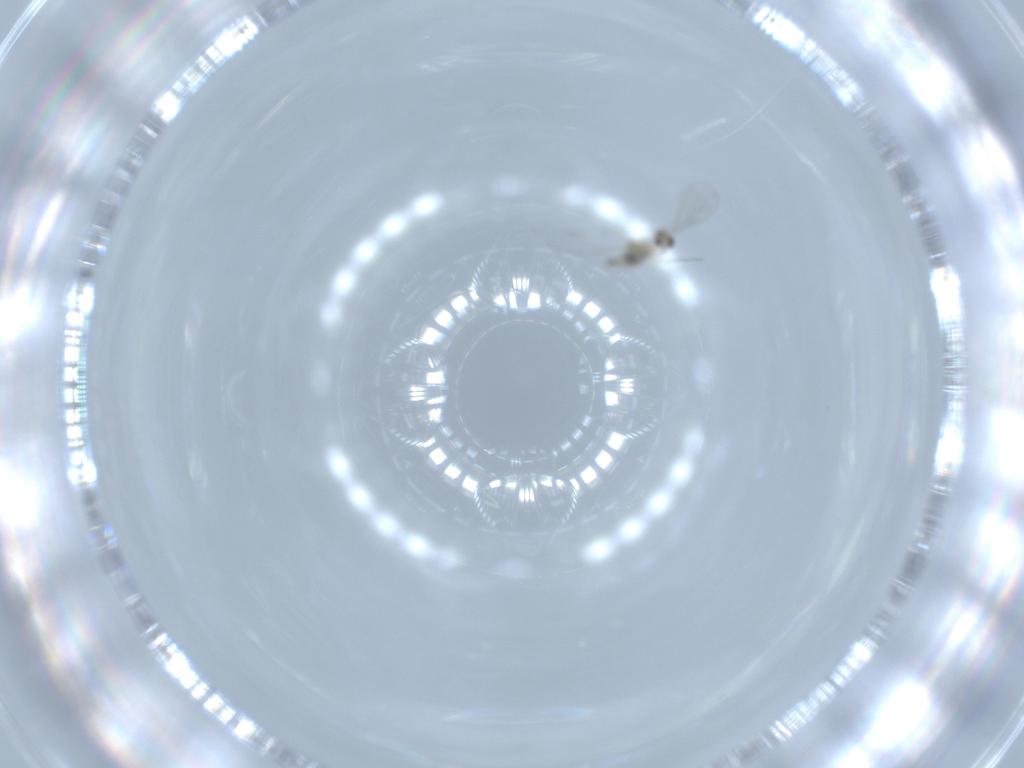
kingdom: Animalia
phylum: Arthropoda
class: Insecta
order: Diptera
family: Cecidomyiidae
